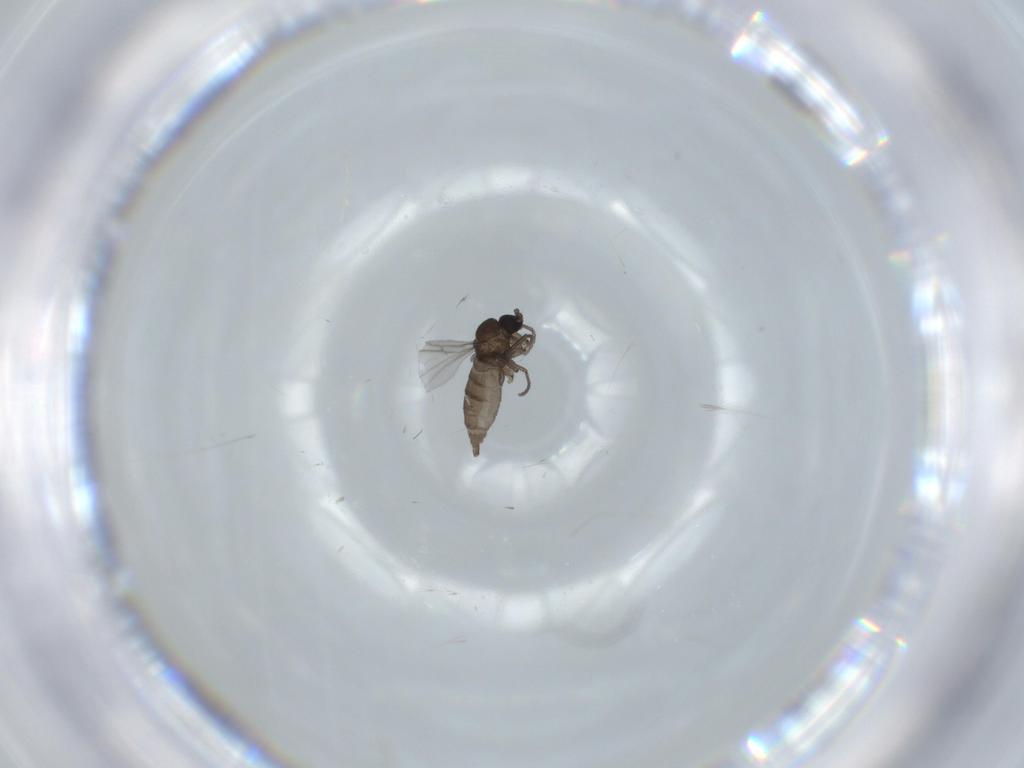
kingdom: Animalia
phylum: Arthropoda
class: Insecta
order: Diptera
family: Sciaridae
